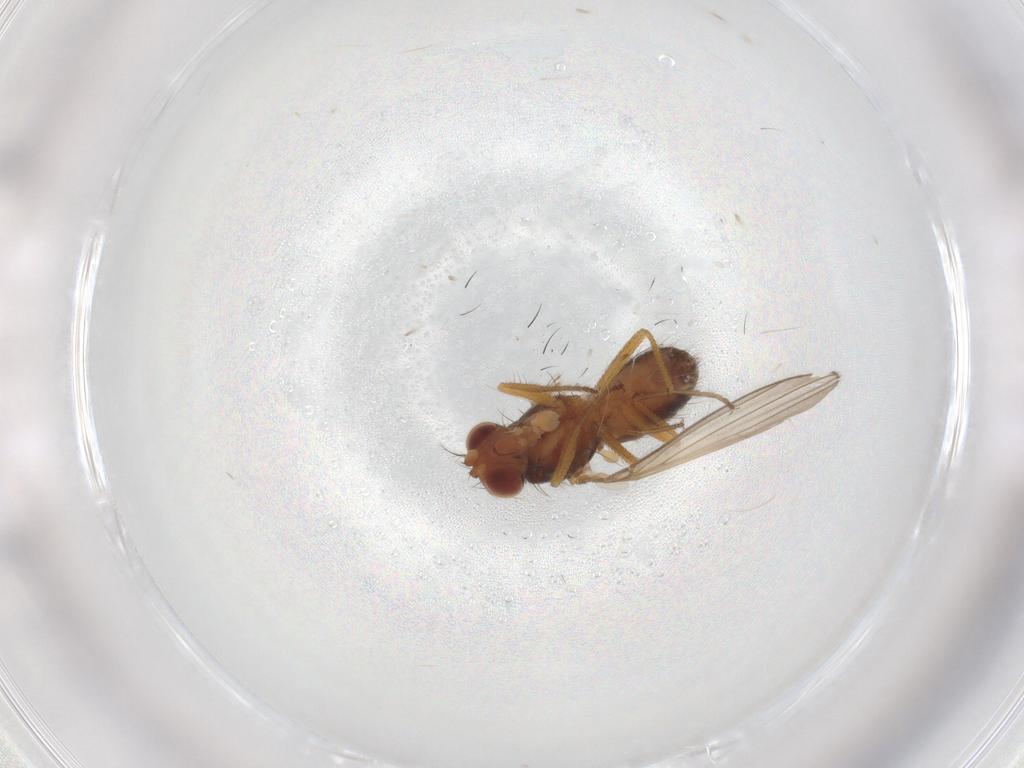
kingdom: Animalia
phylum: Arthropoda
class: Insecta
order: Diptera
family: Drosophilidae
